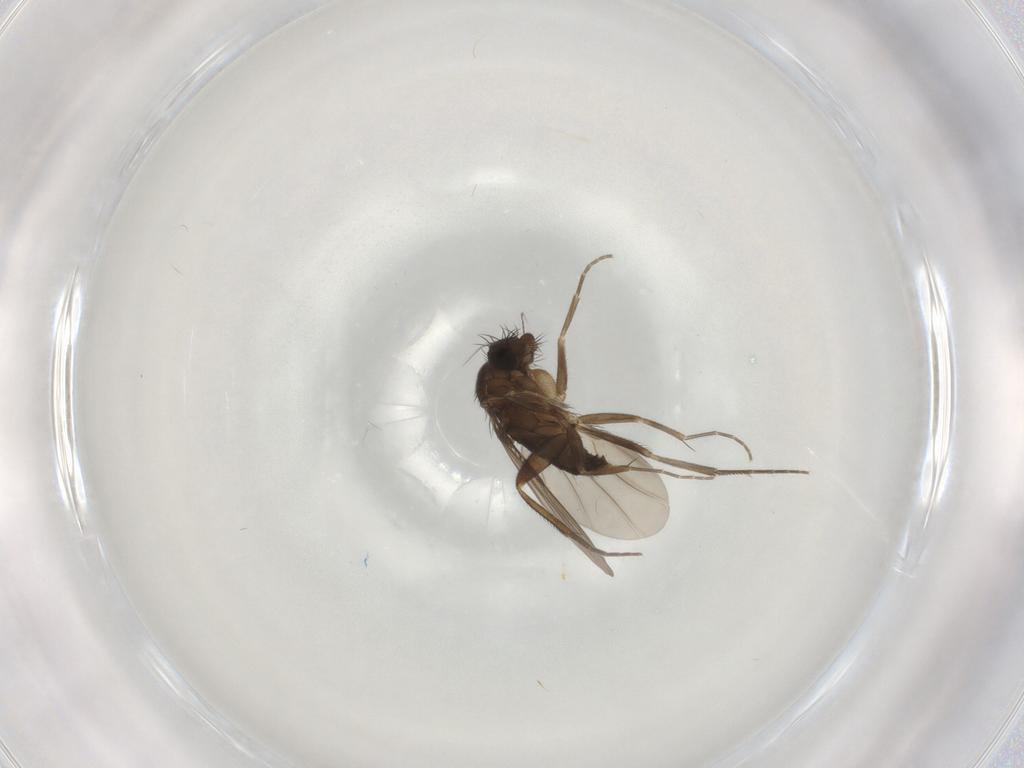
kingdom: Animalia
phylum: Arthropoda
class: Insecta
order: Diptera
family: Phoridae
